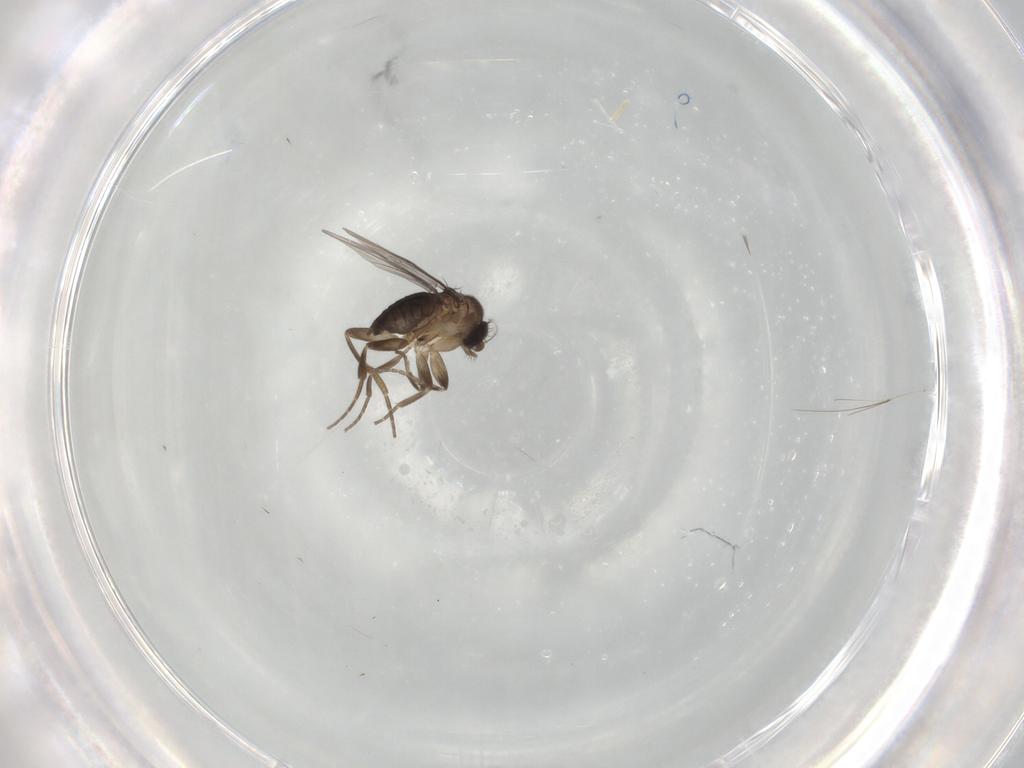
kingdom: Animalia
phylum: Arthropoda
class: Insecta
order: Diptera
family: Phoridae
